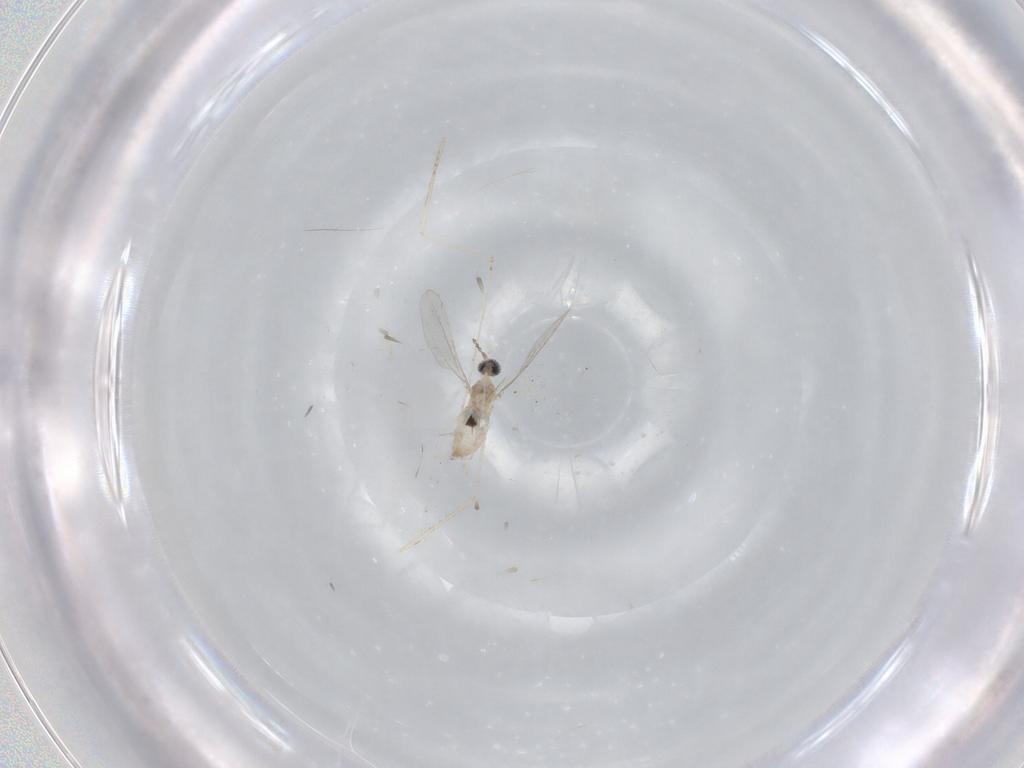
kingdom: Animalia
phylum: Arthropoda
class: Insecta
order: Diptera
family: Cecidomyiidae
